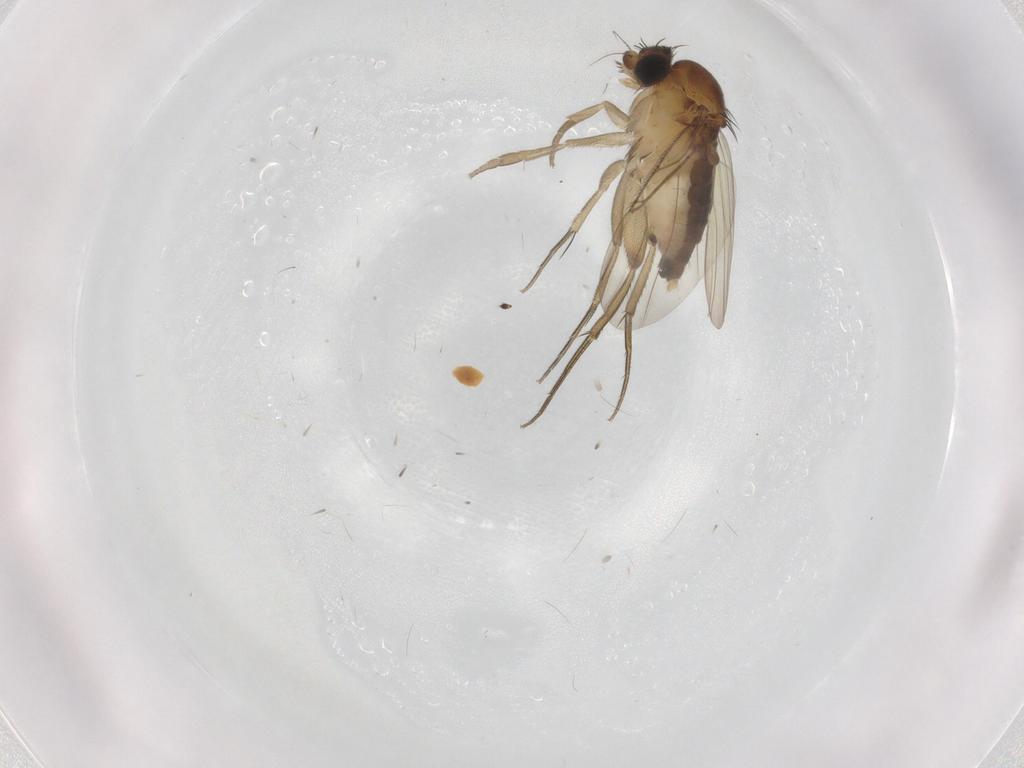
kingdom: Animalia
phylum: Arthropoda
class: Insecta
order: Diptera
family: Phoridae
